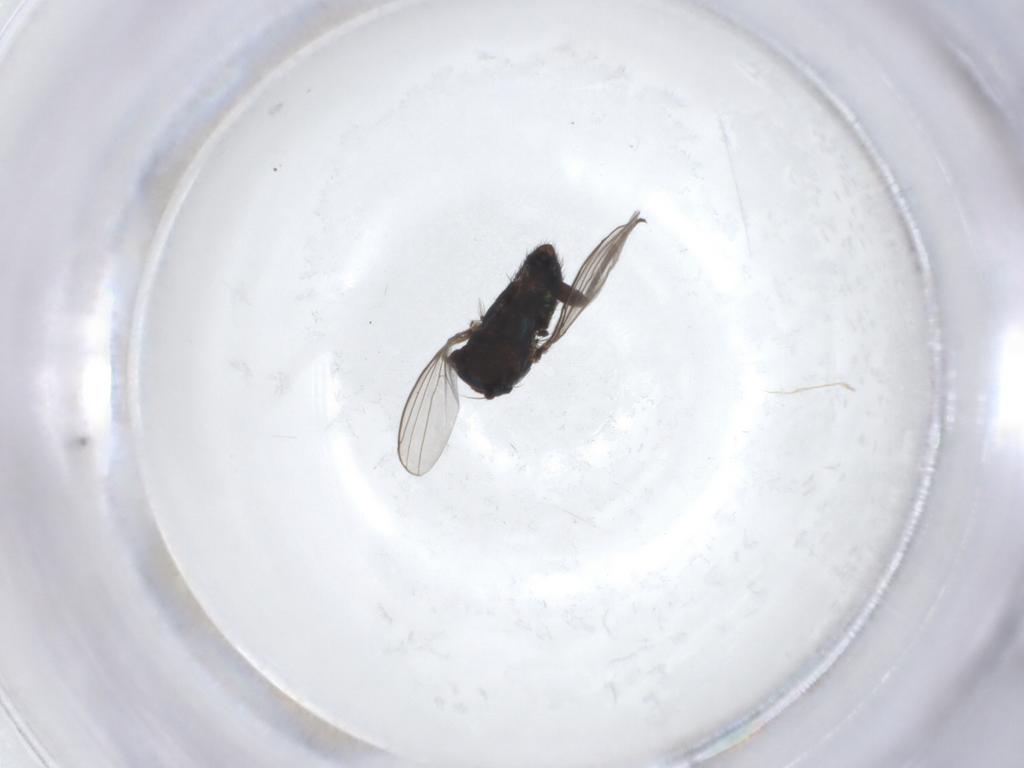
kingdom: Animalia
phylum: Arthropoda
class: Insecta
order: Diptera
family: Dolichopodidae
